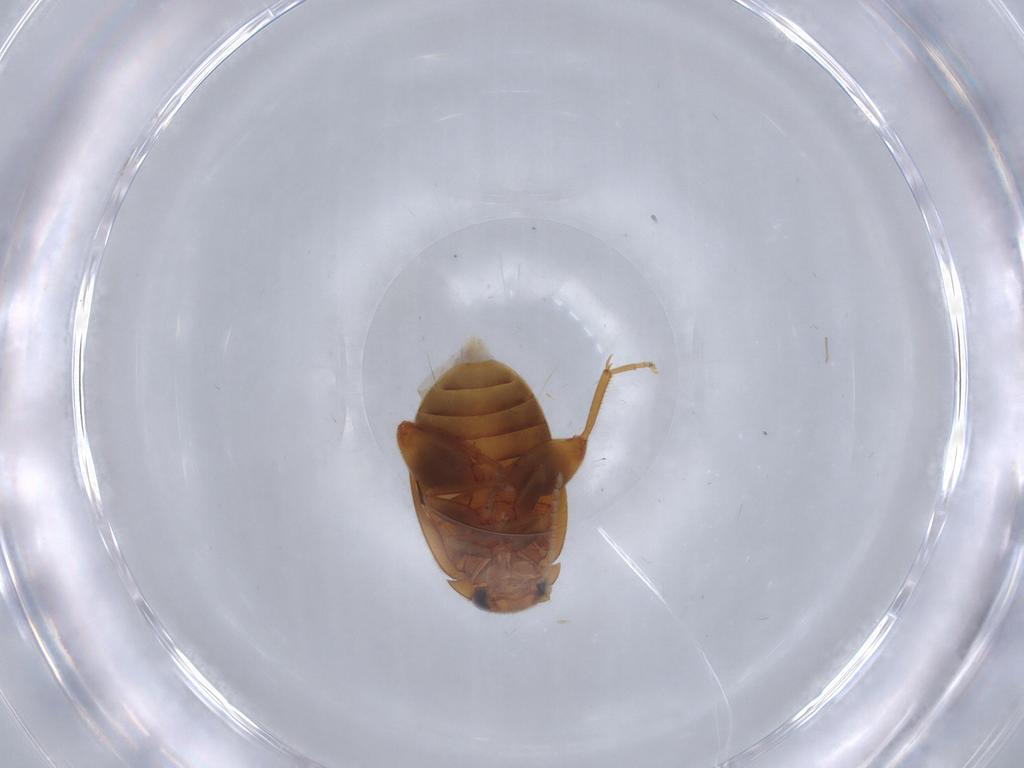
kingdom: Animalia
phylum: Arthropoda
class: Insecta
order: Coleoptera
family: Scirtidae
